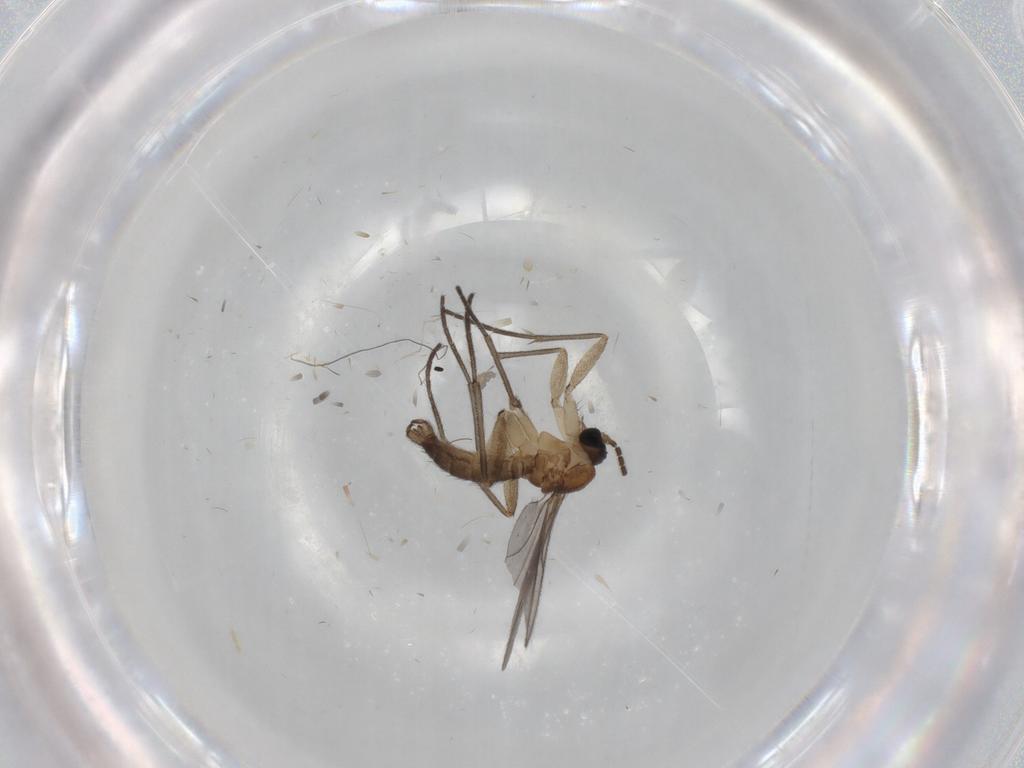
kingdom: Animalia
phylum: Arthropoda
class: Insecta
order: Diptera
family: Sciaridae
